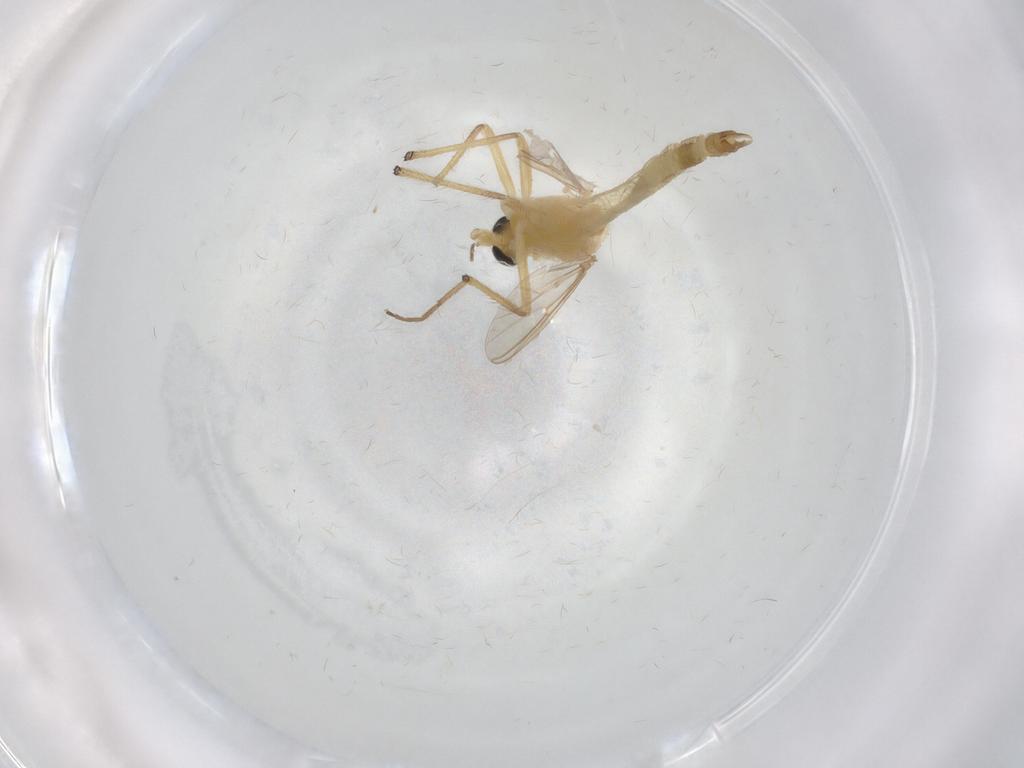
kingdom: Animalia
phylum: Arthropoda
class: Insecta
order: Diptera
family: Chironomidae
